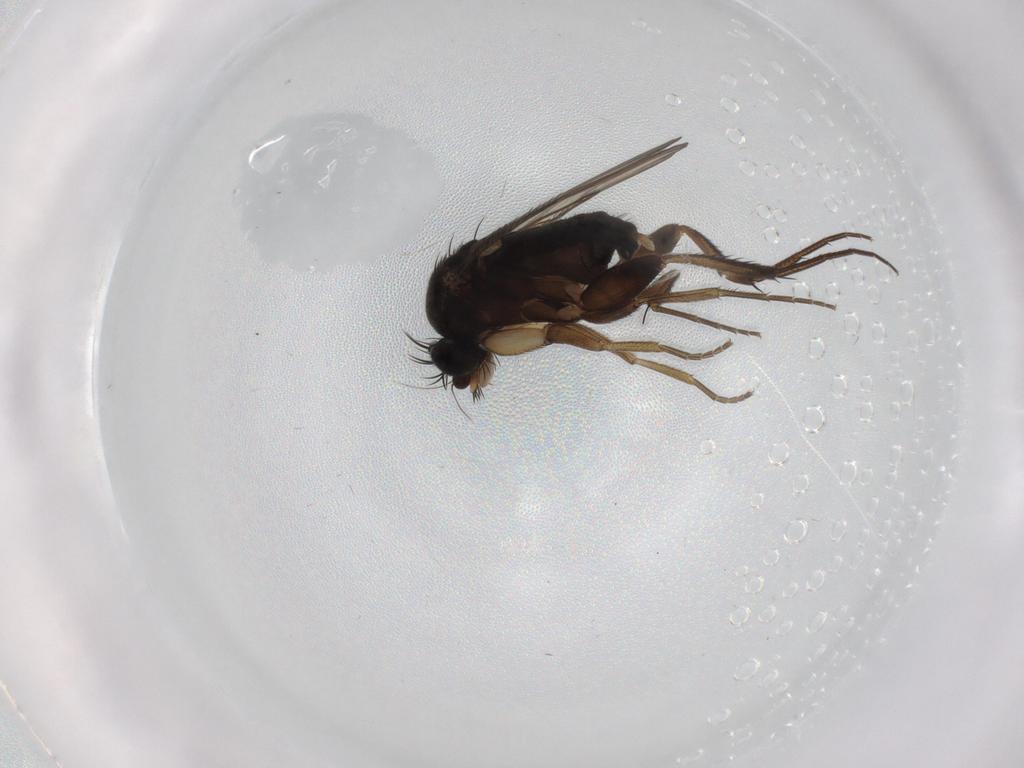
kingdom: Animalia
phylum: Arthropoda
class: Insecta
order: Diptera
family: Phoridae
